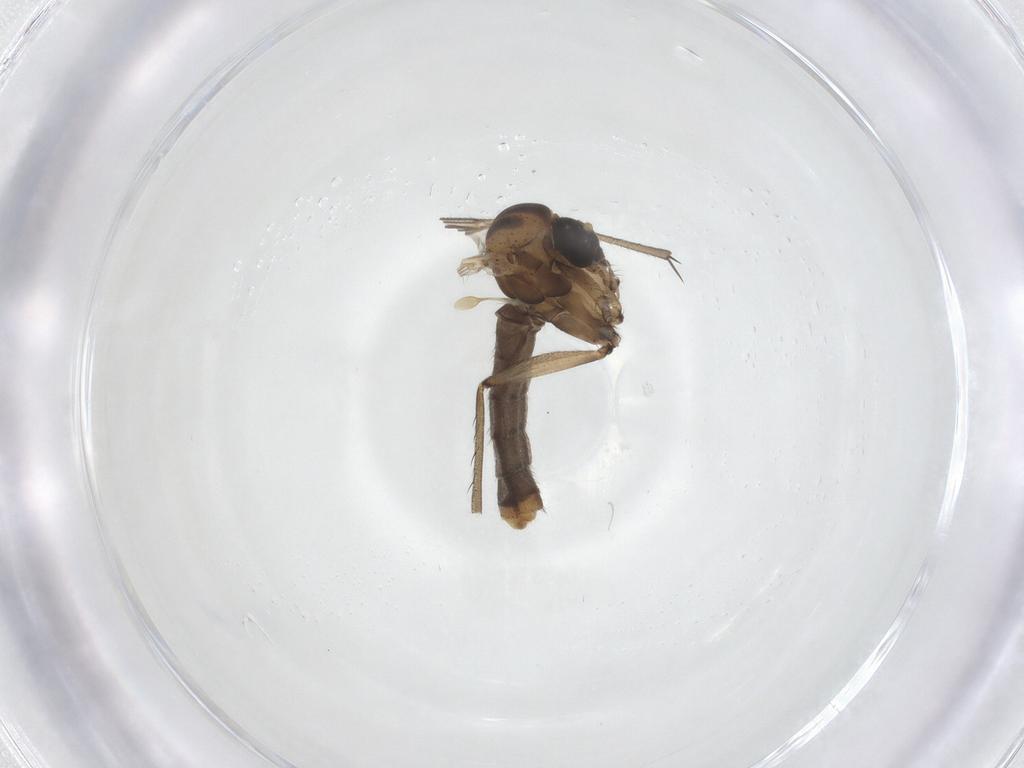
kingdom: Animalia
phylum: Arthropoda
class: Insecta
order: Diptera
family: Mycetophilidae
